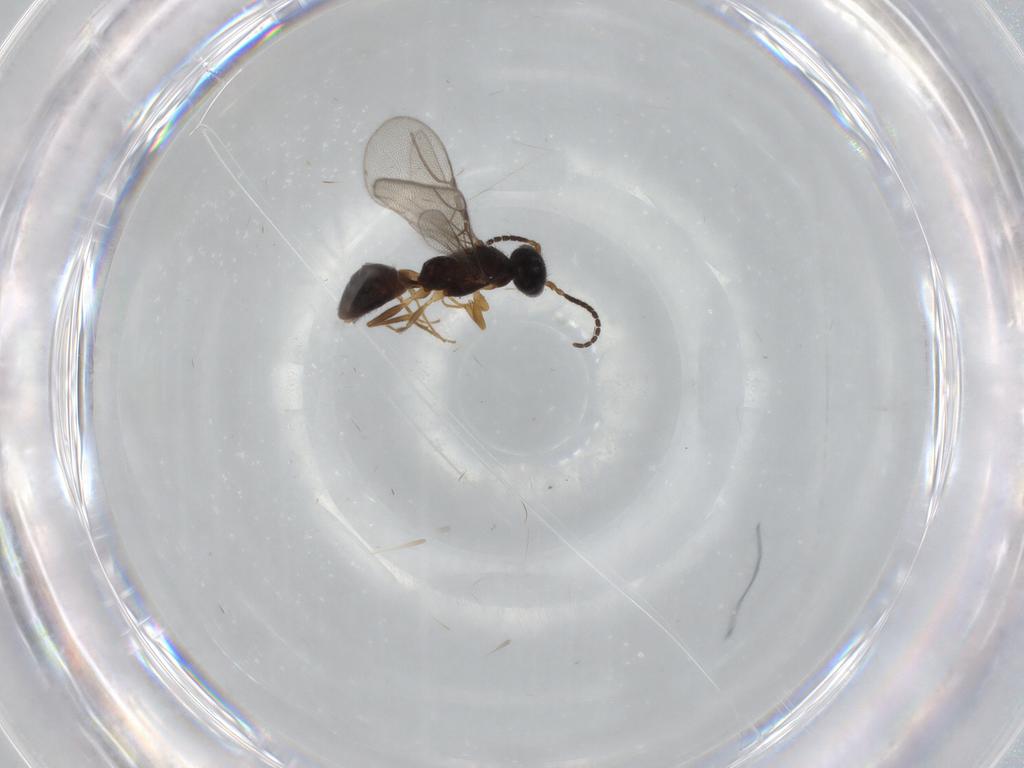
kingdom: Animalia
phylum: Arthropoda
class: Insecta
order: Hymenoptera
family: Bethylidae
